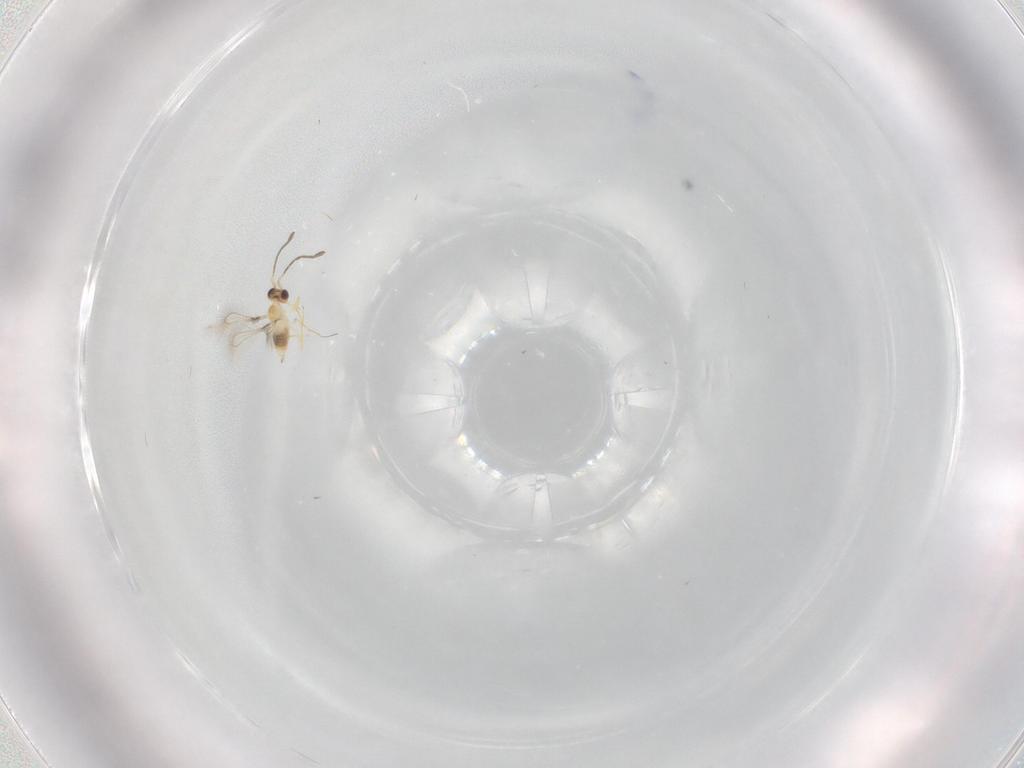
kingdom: Animalia
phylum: Arthropoda
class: Insecta
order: Hymenoptera
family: Mymaridae
